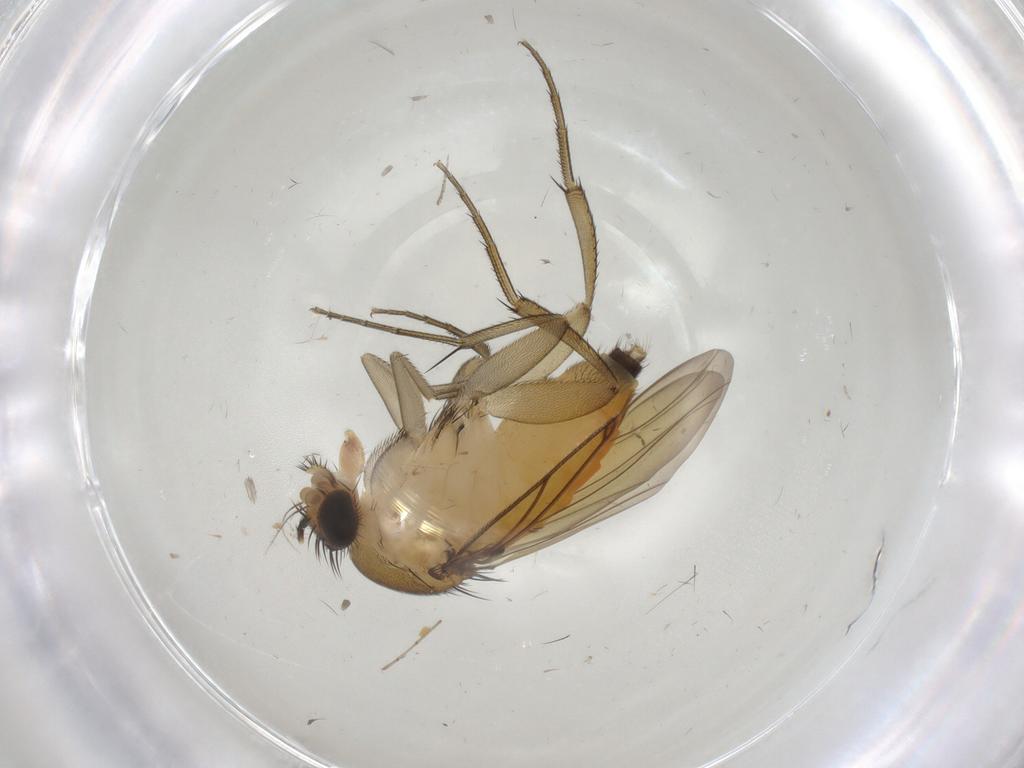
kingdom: Animalia
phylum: Arthropoda
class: Insecta
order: Diptera
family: Phoridae
